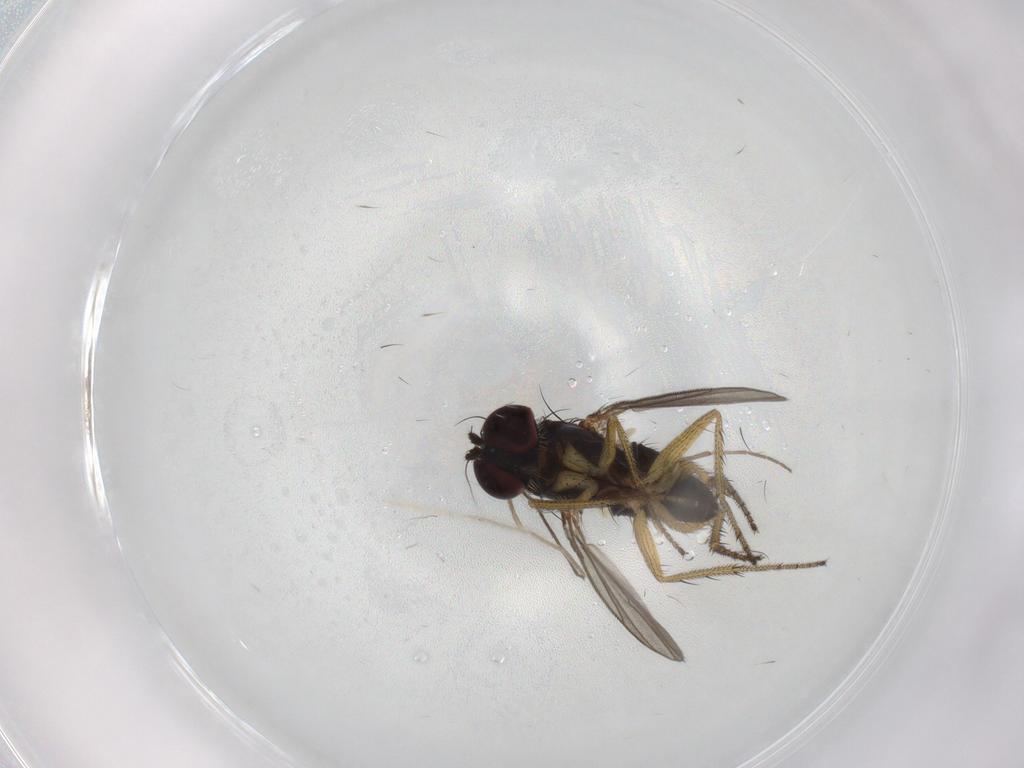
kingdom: Animalia
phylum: Arthropoda
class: Insecta
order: Diptera
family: Chironomidae
